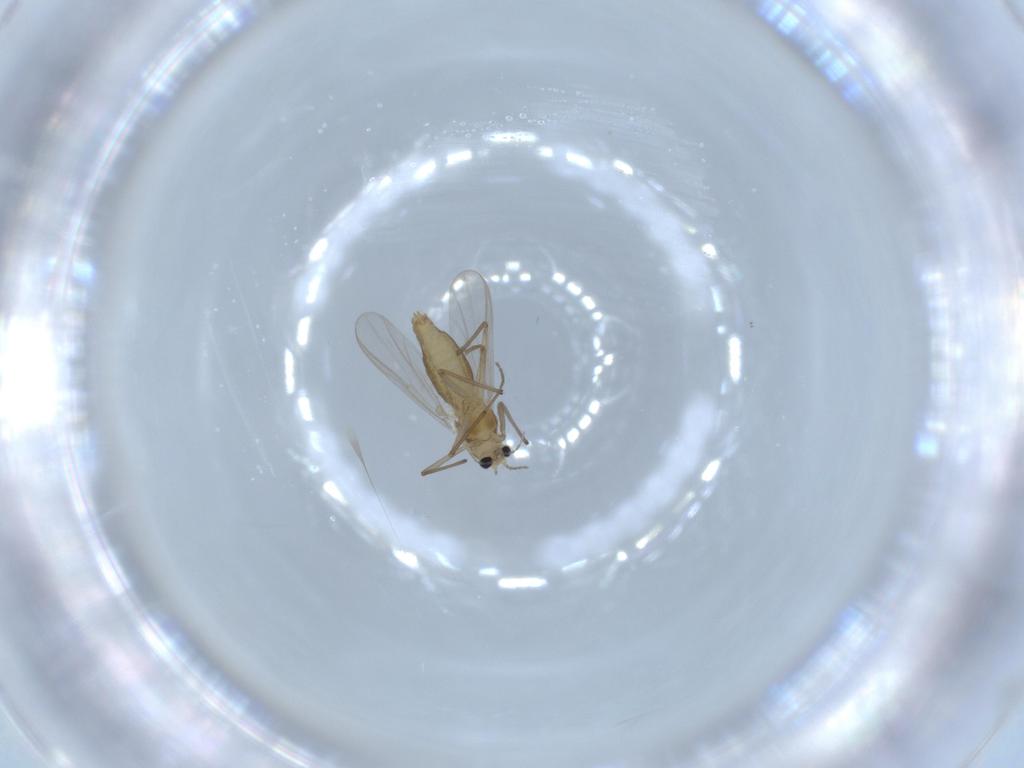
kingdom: Animalia
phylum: Arthropoda
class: Insecta
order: Diptera
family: Chironomidae
